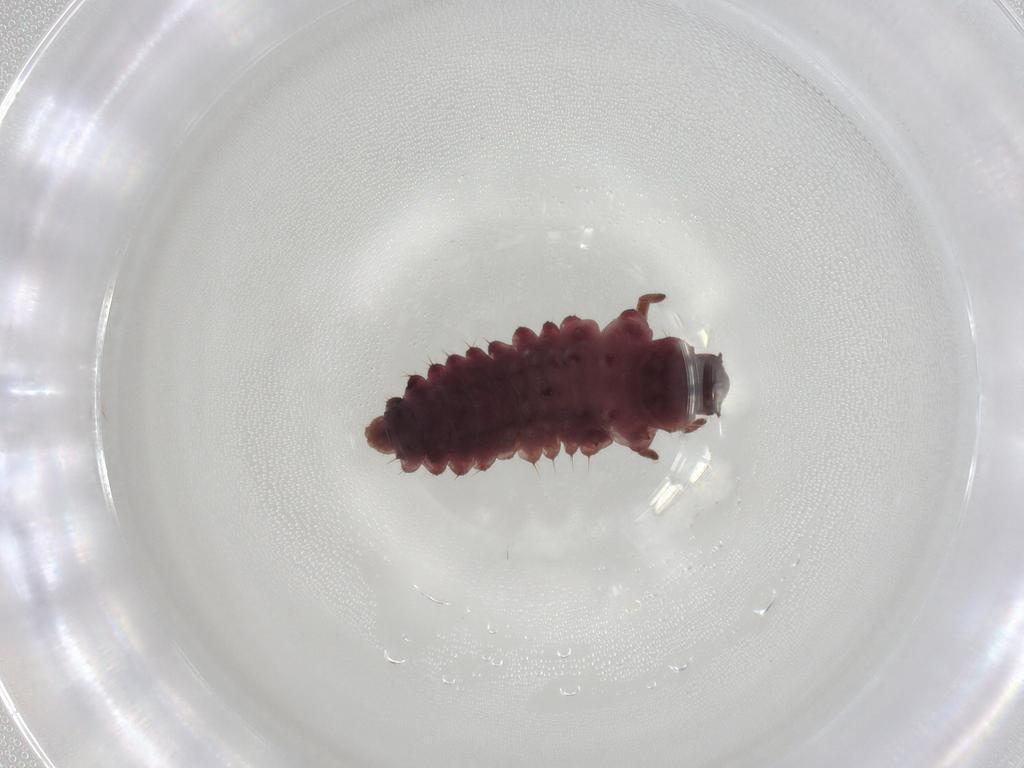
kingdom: Animalia
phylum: Arthropoda
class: Insecta
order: Coleoptera
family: Coccinellidae
